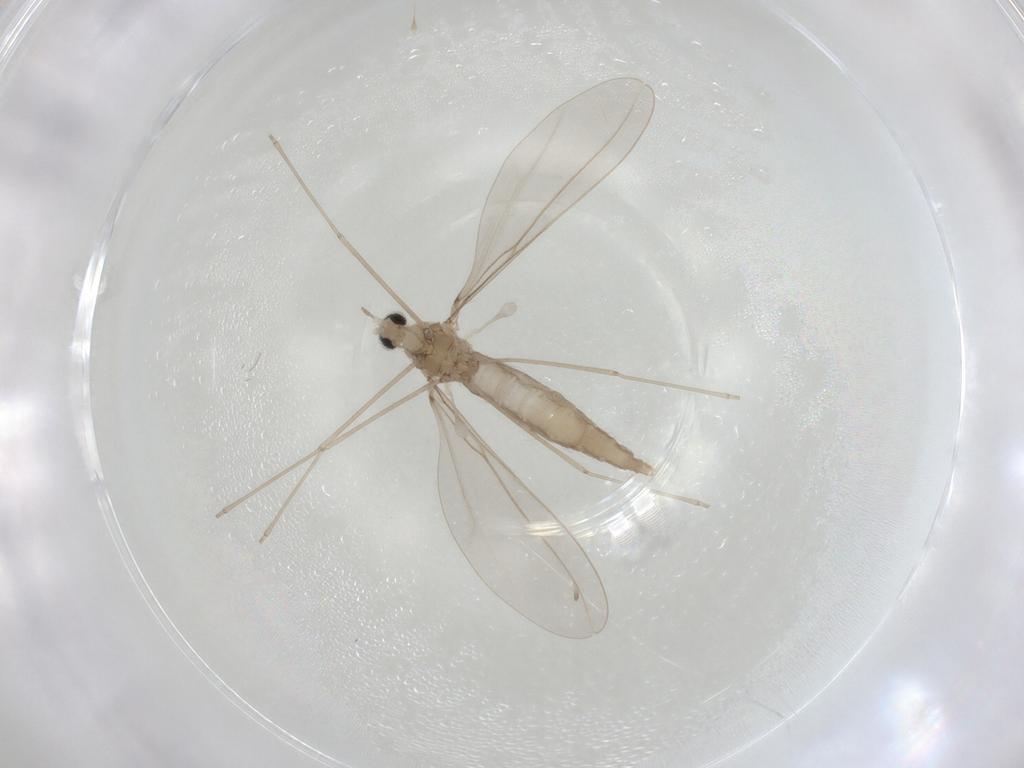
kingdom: Animalia
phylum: Arthropoda
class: Insecta
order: Diptera
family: Cecidomyiidae
